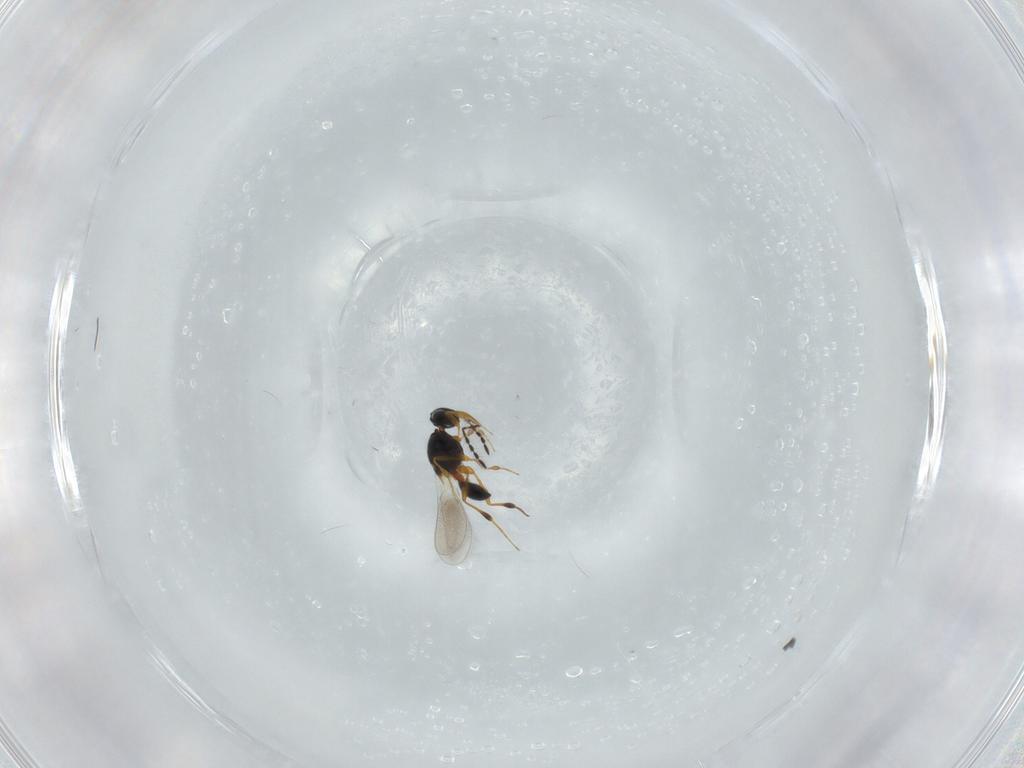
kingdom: Animalia
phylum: Arthropoda
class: Insecta
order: Hymenoptera
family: Platygastridae
